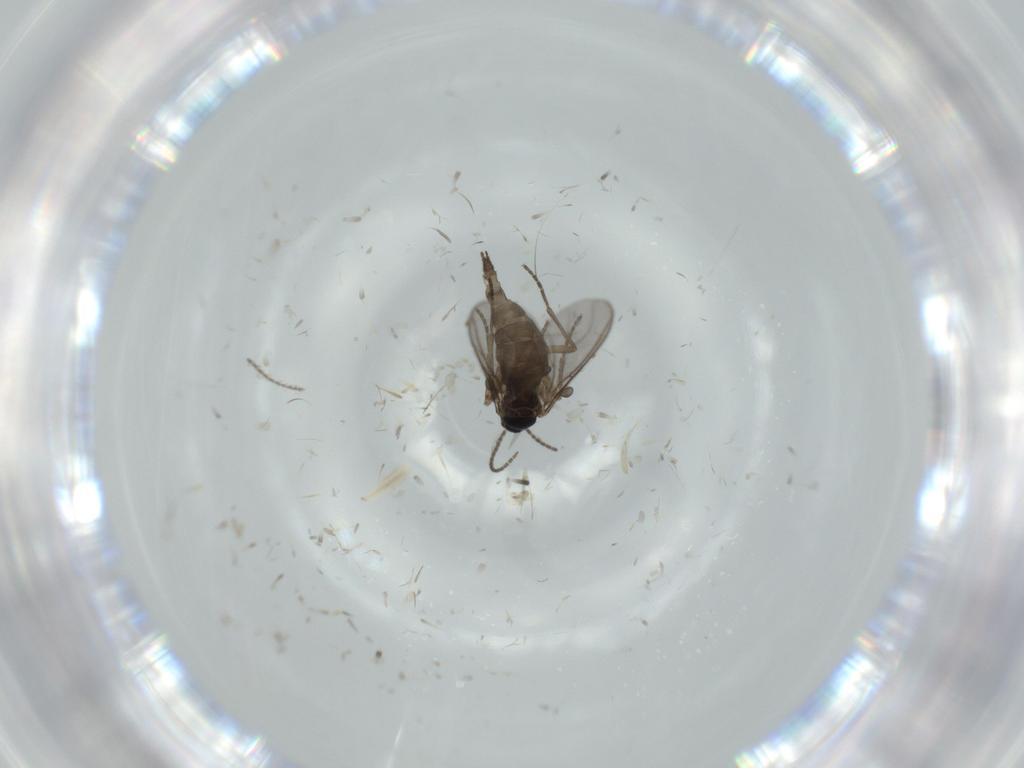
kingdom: Animalia
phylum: Arthropoda
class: Insecta
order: Diptera
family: Sciaridae
